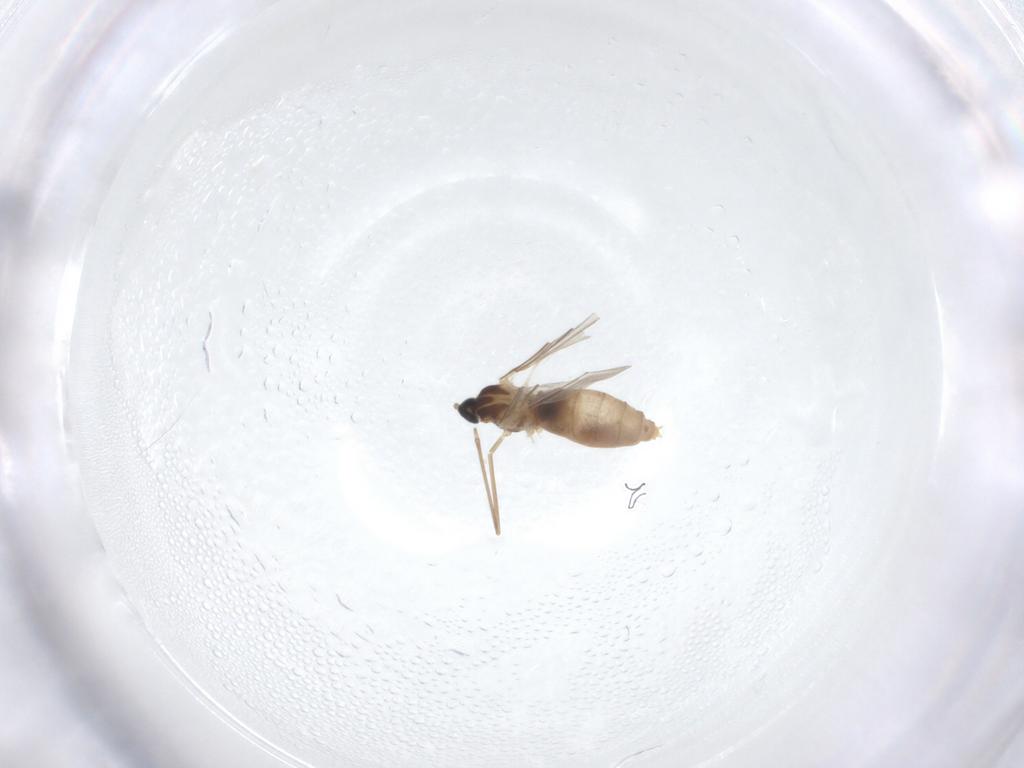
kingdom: Animalia
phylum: Arthropoda
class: Insecta
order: Diptera
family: Cecidomyiidae
